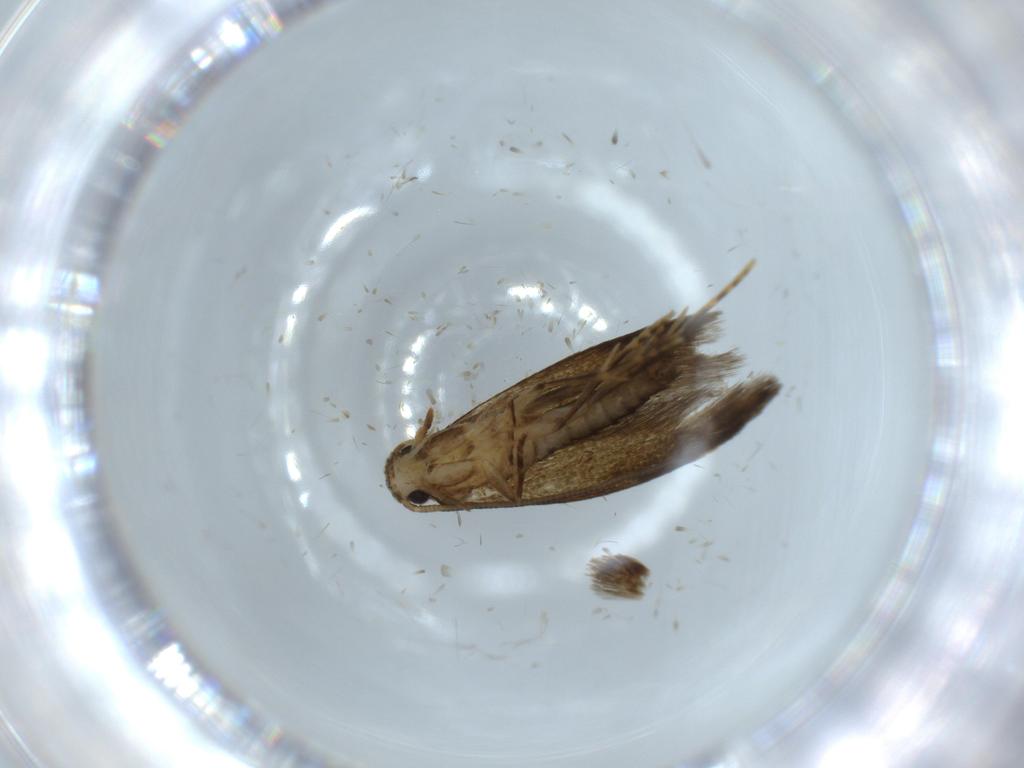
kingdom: Animalia
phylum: Arthropoda
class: Insecta
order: Lepidoptera
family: Tineidae
